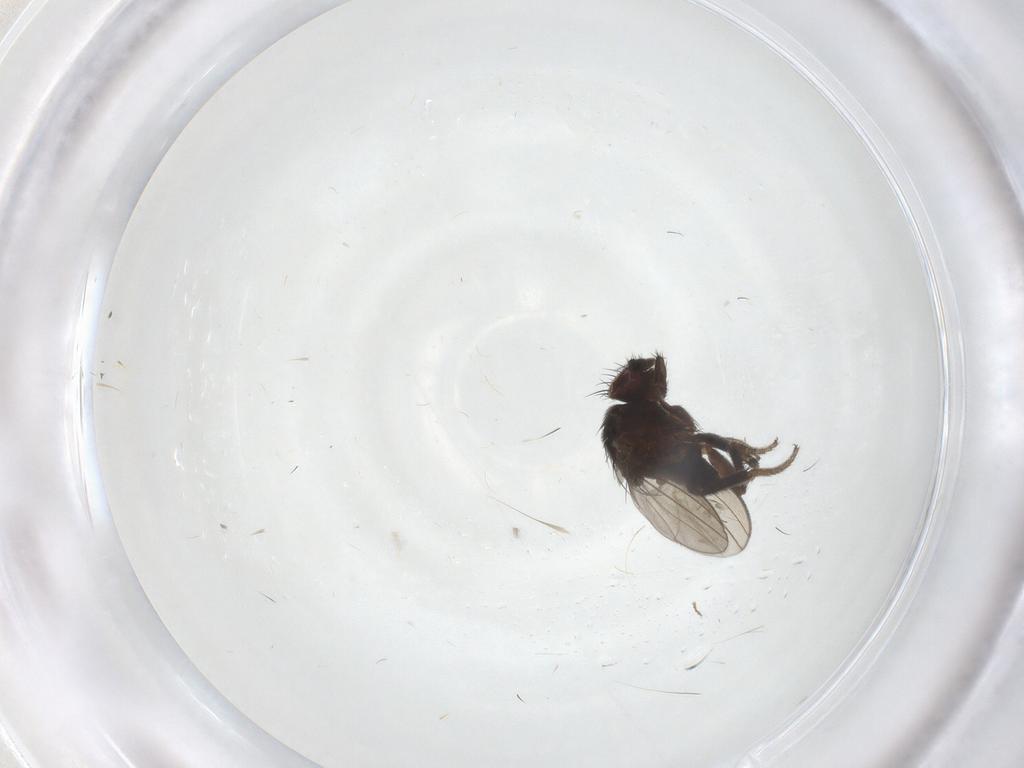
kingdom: Animalia
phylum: Arthropoda
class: Insecta
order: Diptera
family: Milichiidae
